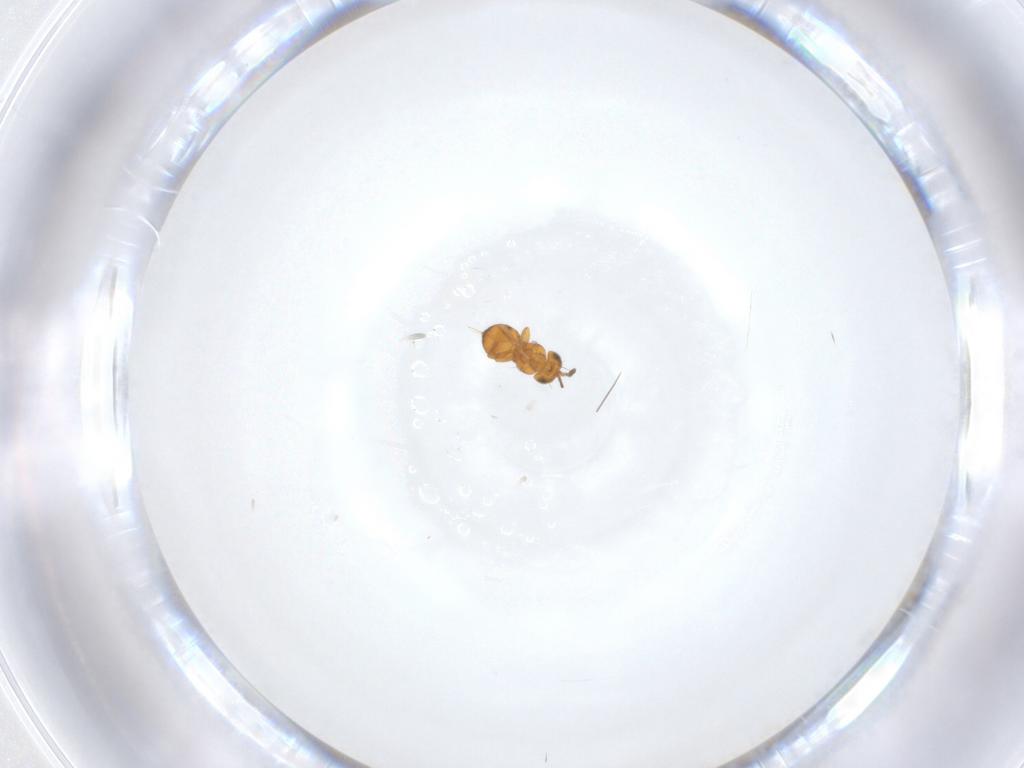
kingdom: Animalia
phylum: Arthropoda
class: Insecta
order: Hymenoptera
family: Scelionidae
